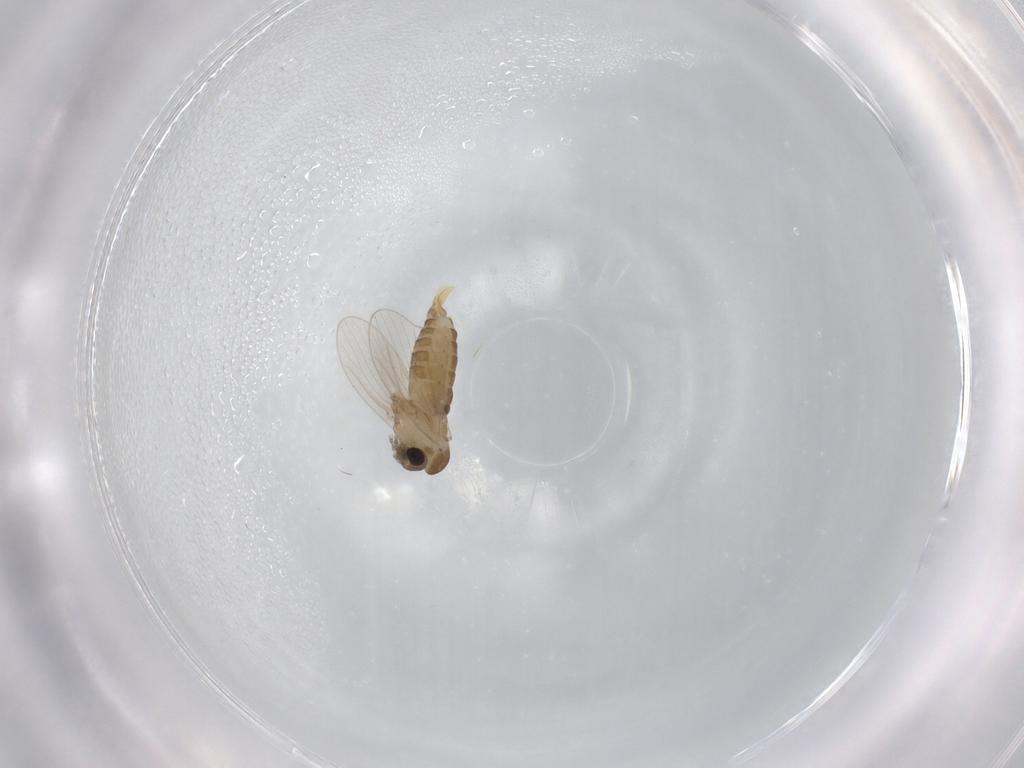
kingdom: Animalia
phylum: Arthropoda
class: Insecta
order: Diptera
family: Psychodidae
